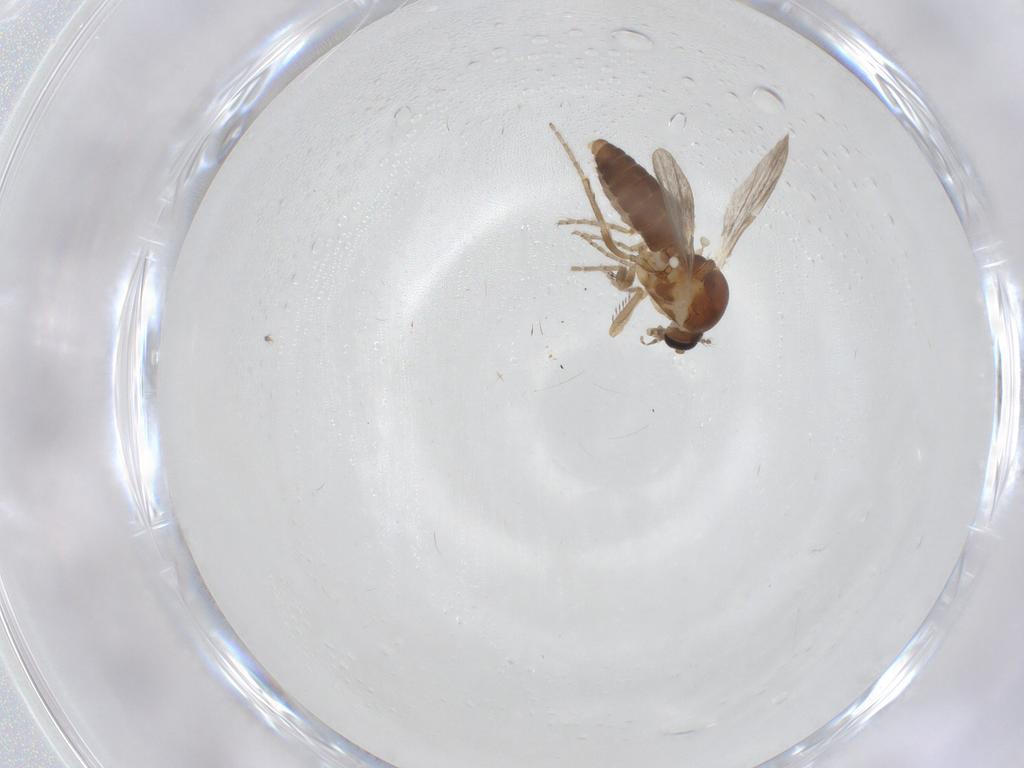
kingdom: Animalia
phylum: Arthropoda
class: Insecta
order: Diptera
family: Ceratopogonidae
